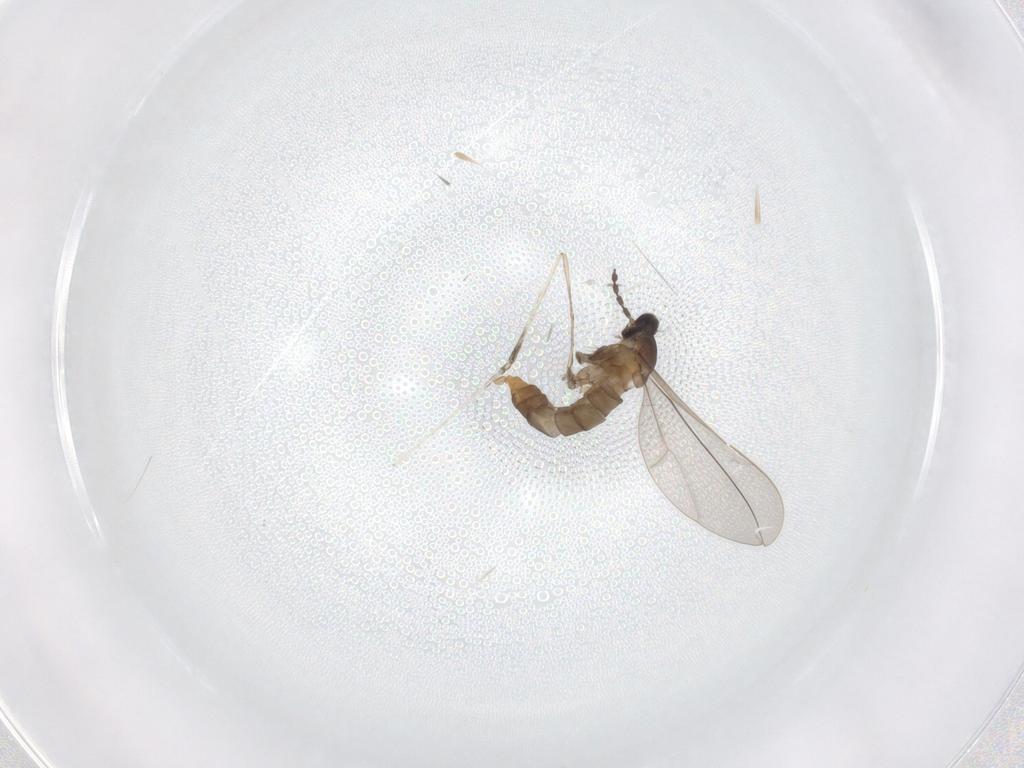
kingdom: Animalia
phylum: Arthropoda
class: Insecta
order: Diptera
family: Cecidomyiidae
